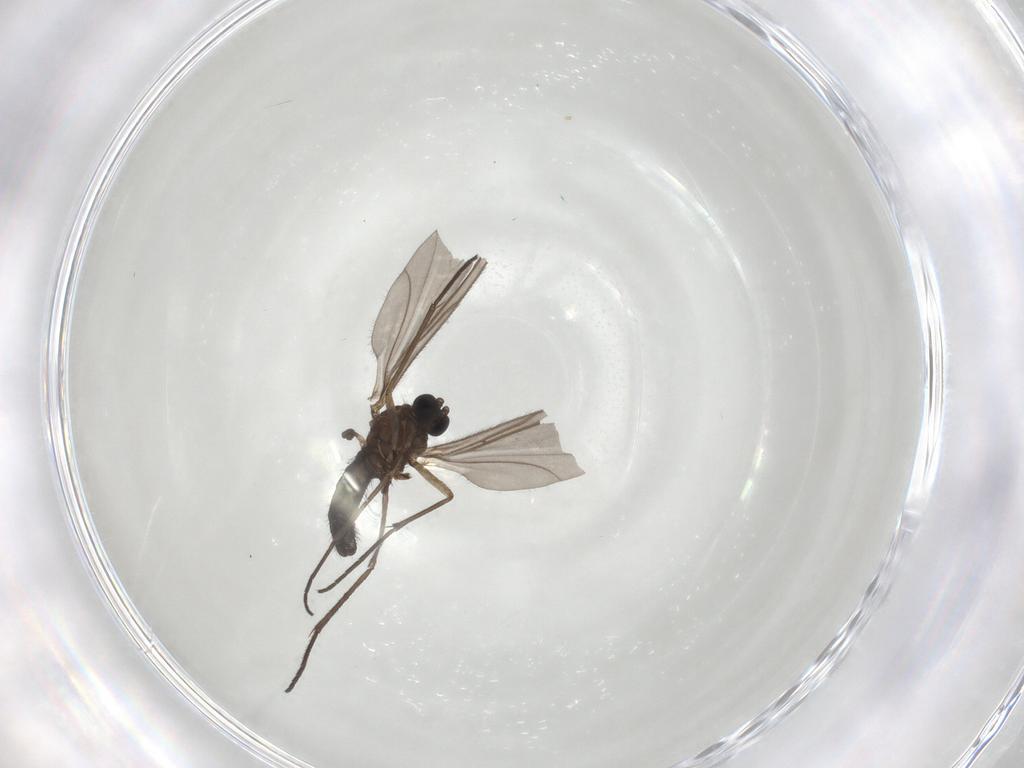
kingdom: Animalia
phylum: Arthropoda
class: Insecta
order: Diptera
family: Sciaridae
